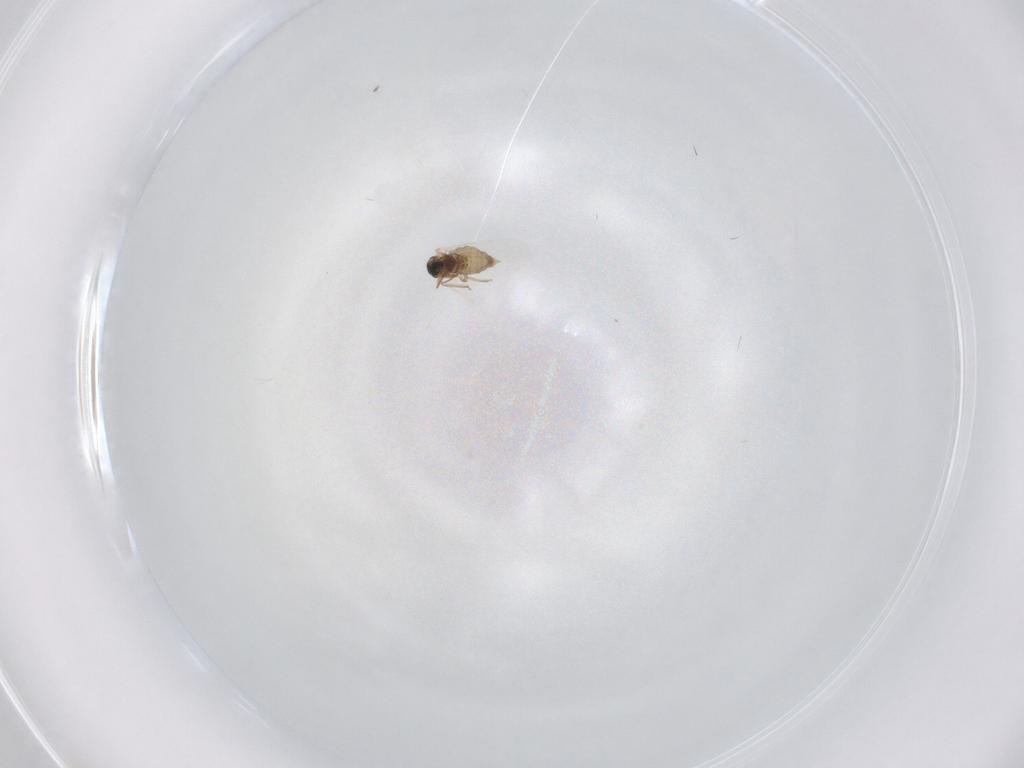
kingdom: Animalia
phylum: Arthropoda
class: Insecta
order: Diptera
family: Cecidomyiidae
